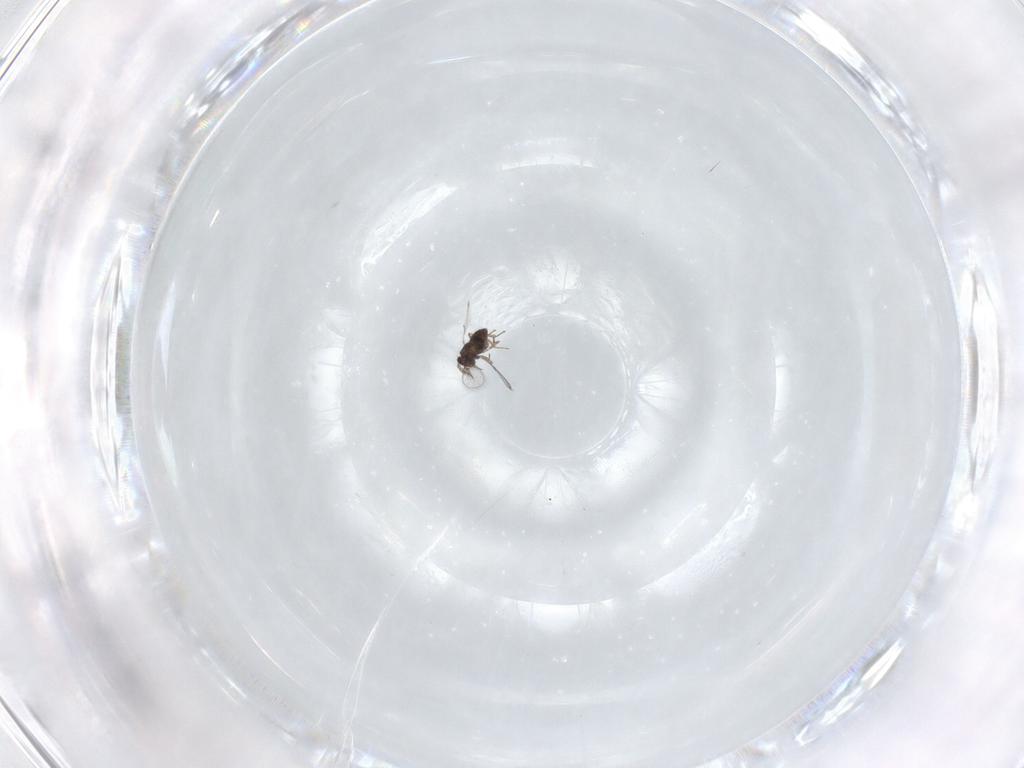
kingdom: Animalia
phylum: Arthropoda
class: Insecta
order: Hymenoptera
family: Trichogrammatidae
